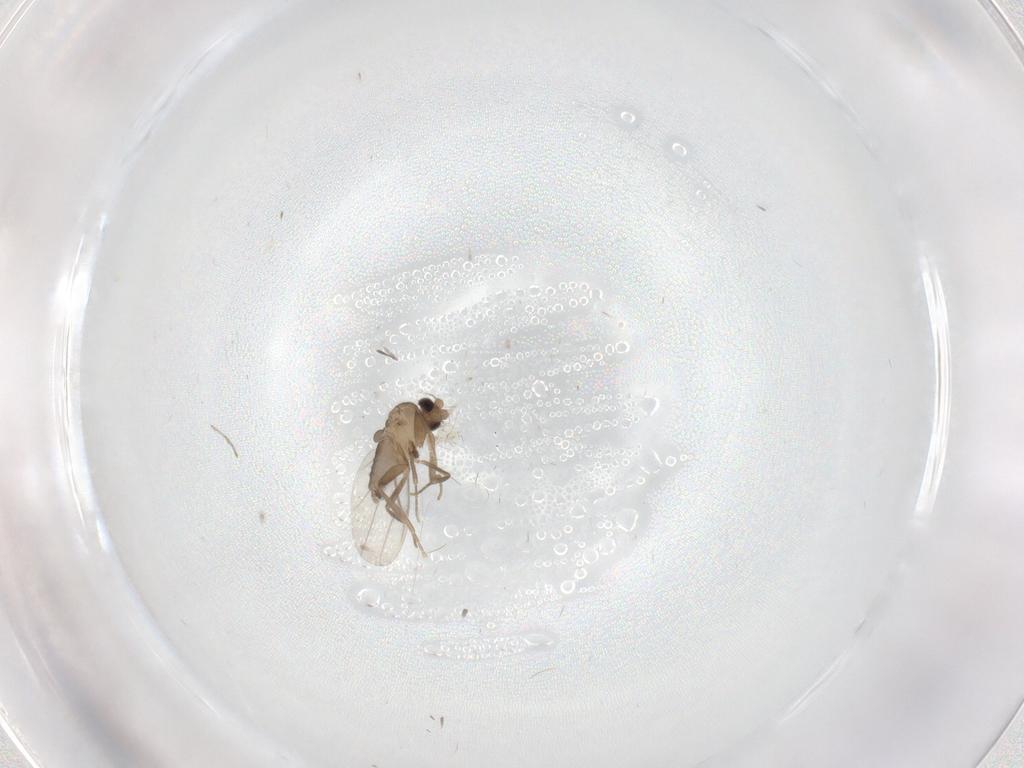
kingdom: Animalia
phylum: Arthropoda
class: Insecta
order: Diptera
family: Cecidomyiidae
